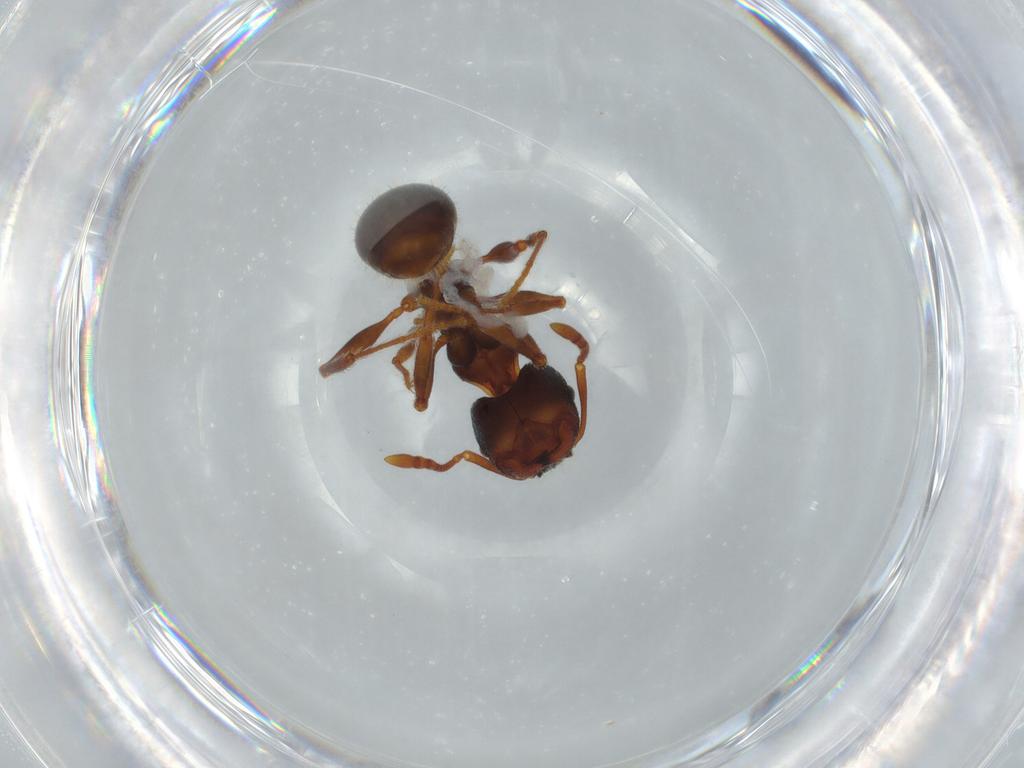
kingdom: Animalia
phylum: Arthropoda
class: Insecta
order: Hymenoptera
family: Formicidae
